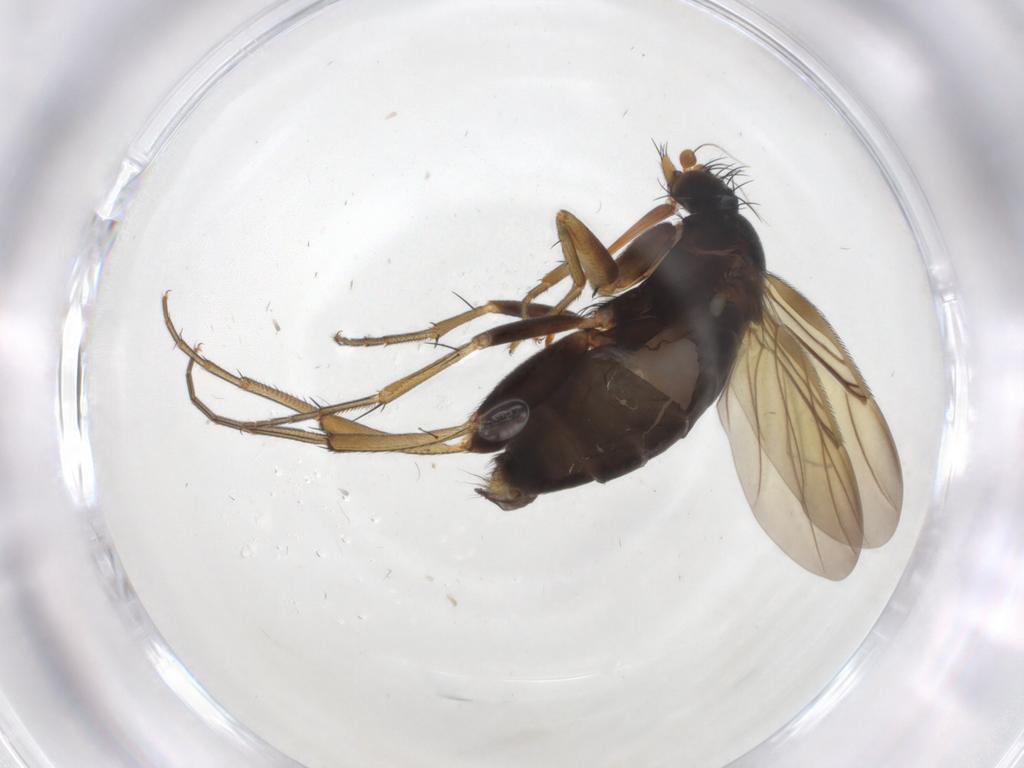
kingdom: Animalia
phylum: Arthropoda
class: Insecta
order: Diptera
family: Phoridae
